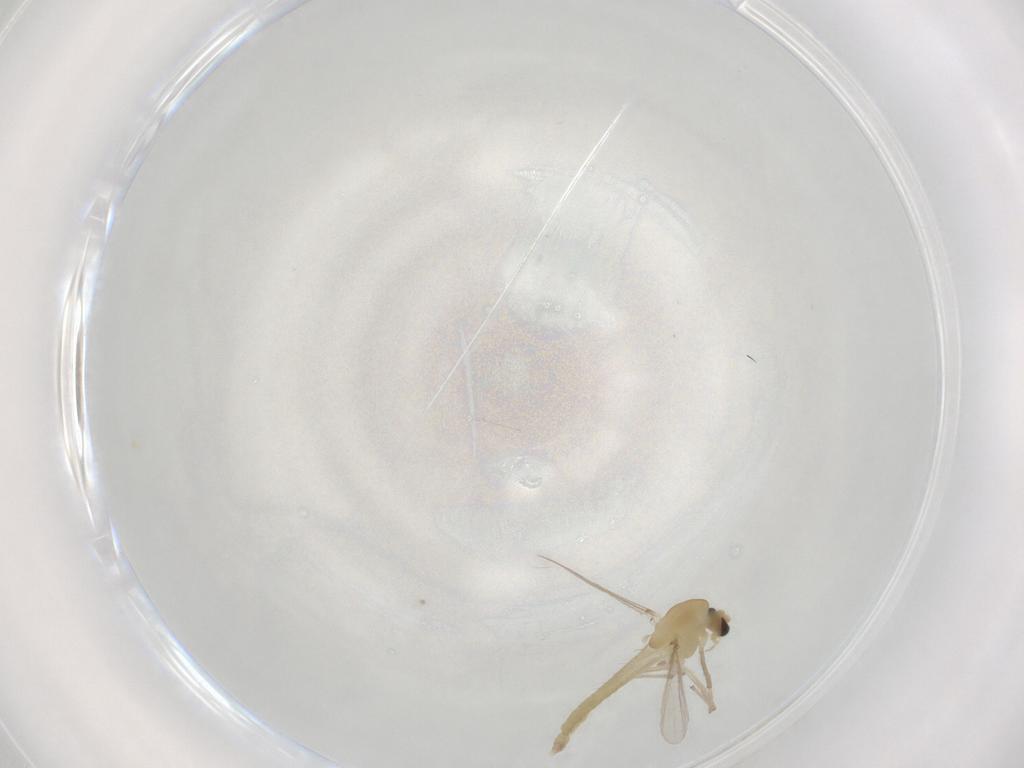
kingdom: Animalia
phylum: Arthropoda
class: Insecta
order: Diptera
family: Chironomidae
